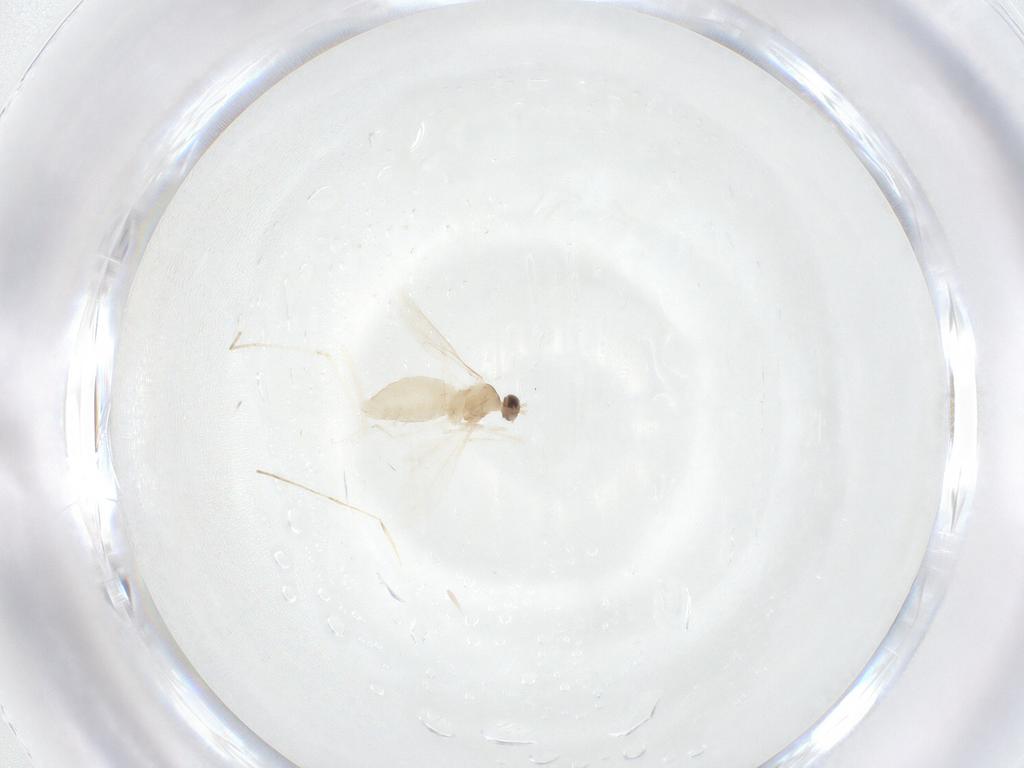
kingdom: Animalia
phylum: Arthropoda
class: Insecta
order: Diptera
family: Cecidomyiidae
